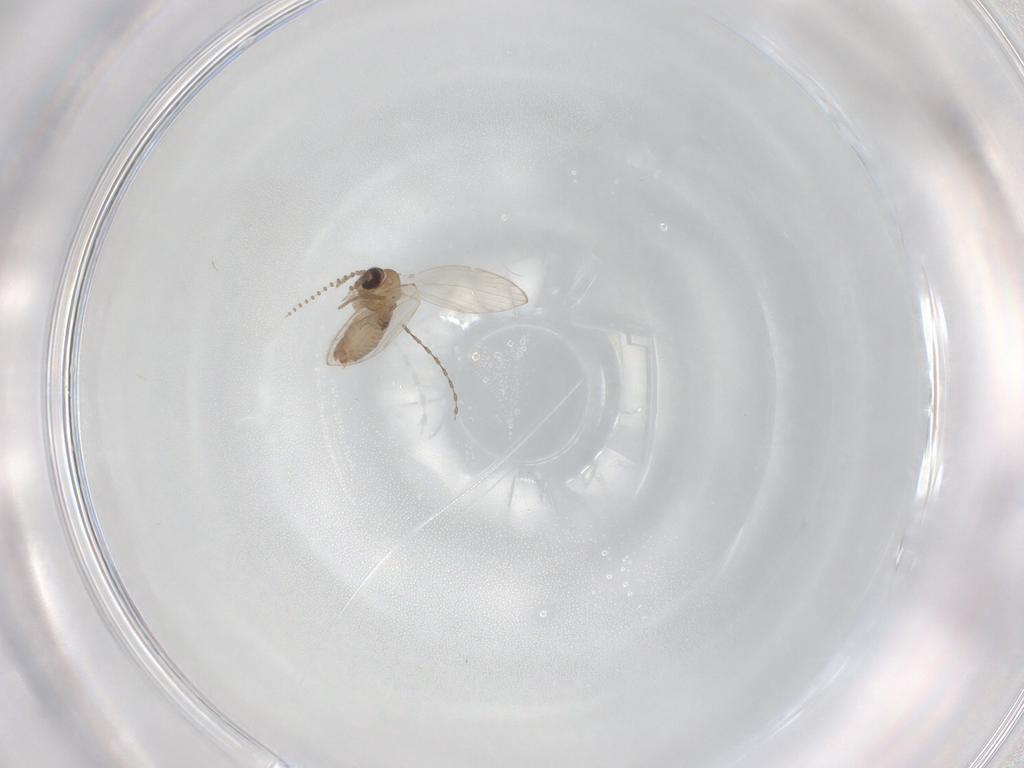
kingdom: Animalia
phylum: Arthropoda
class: Insecta
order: Diptera
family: Psychodidae
